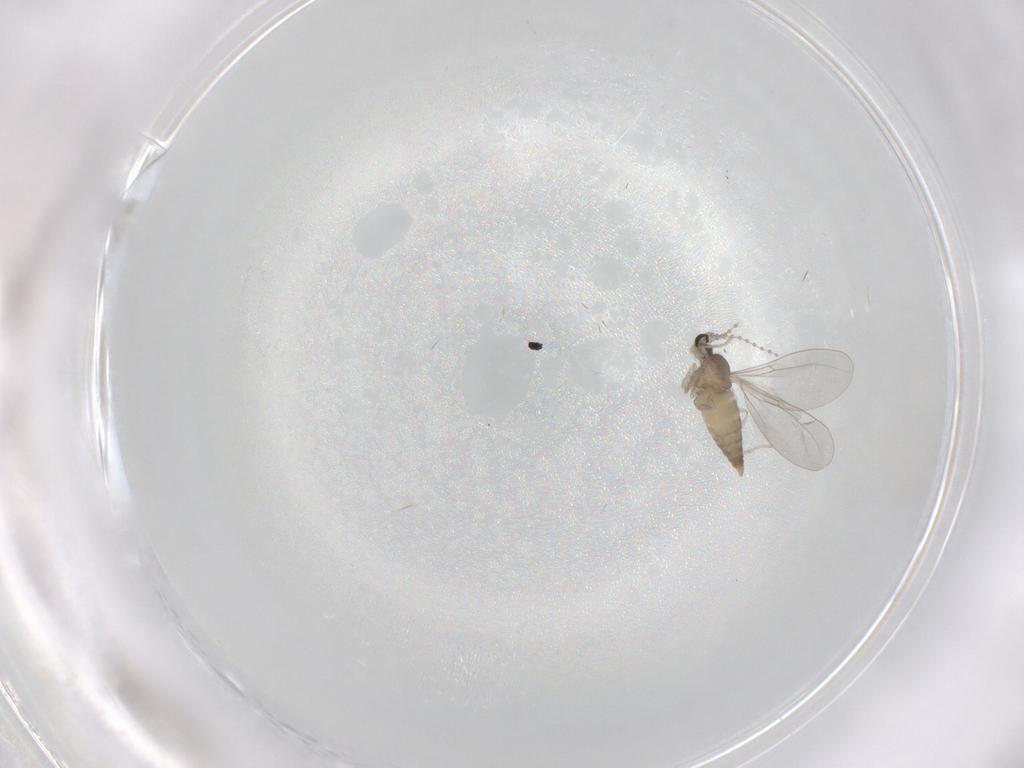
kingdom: Animalia
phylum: Arthropoda
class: Insecta
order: Diptera
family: Cecidomyiidae
